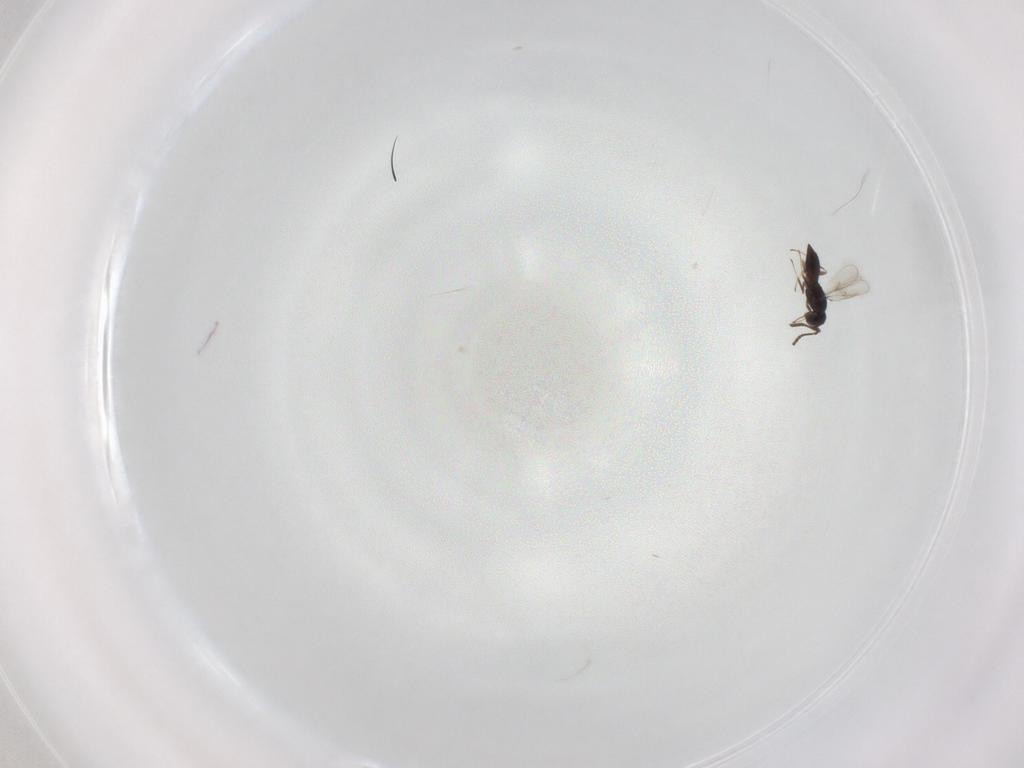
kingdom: Animalia
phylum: Arthropoda
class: Insecta
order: Hymenoptera
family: Scelionidae
